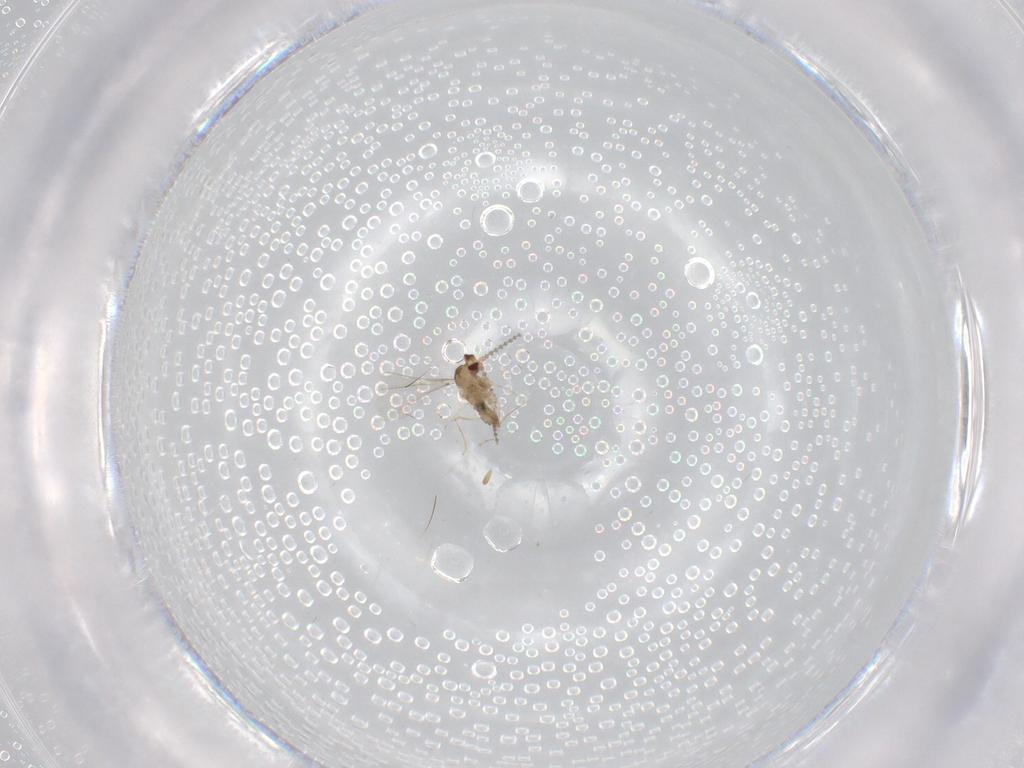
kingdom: Animalia
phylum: Arthropoda
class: Insecta
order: Diptera
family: Cecidomyiidae
